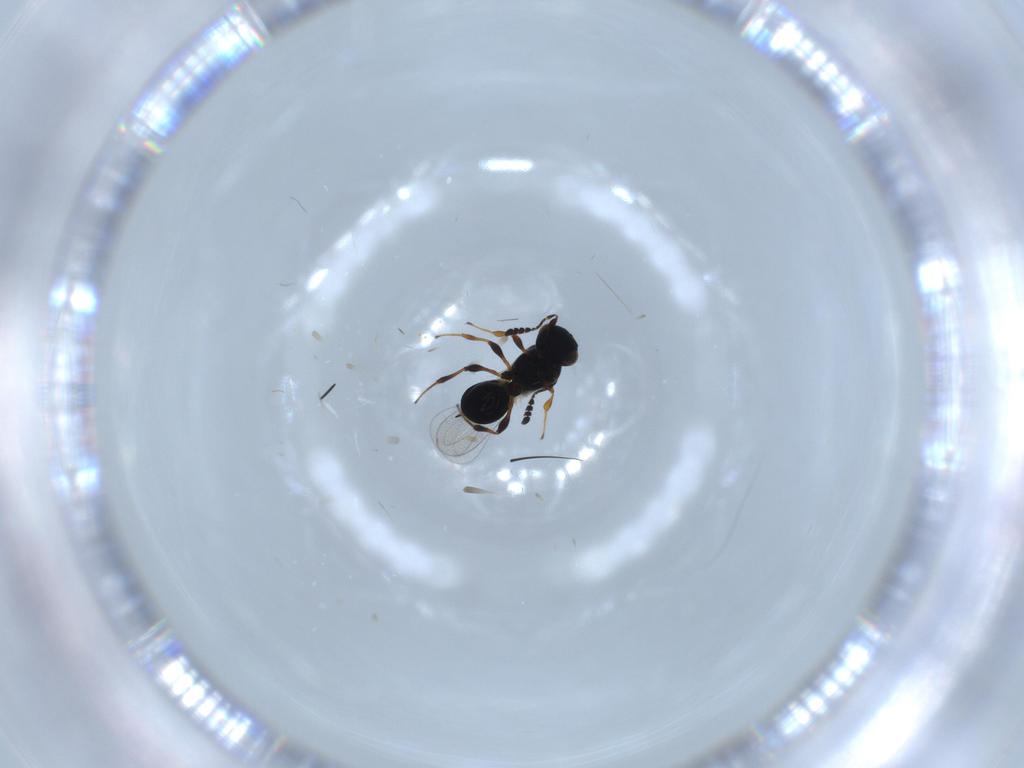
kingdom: Animalia
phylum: Arthropoda
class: Insecta
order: Hymenoptera
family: Platygastridae
